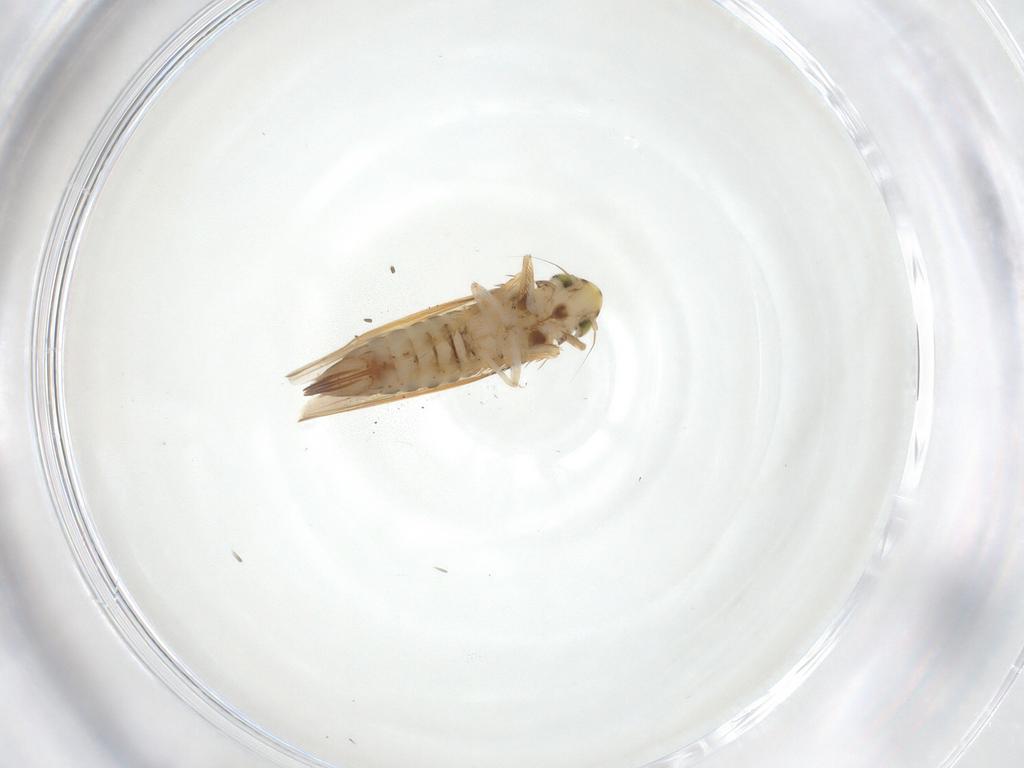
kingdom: Animalia
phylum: Arthropoda
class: Insecta
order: Hemiptera
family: Cicadellidae
